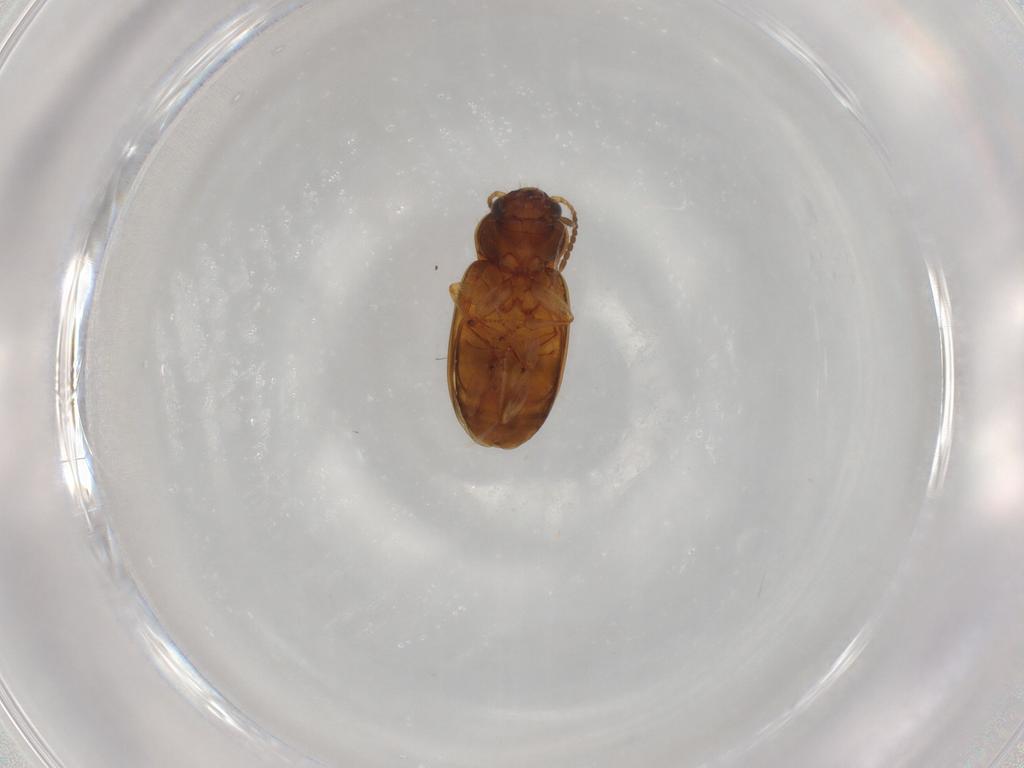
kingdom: Animalia
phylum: Arthropoda
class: Insecta
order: Coleoptera
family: Carabidae
